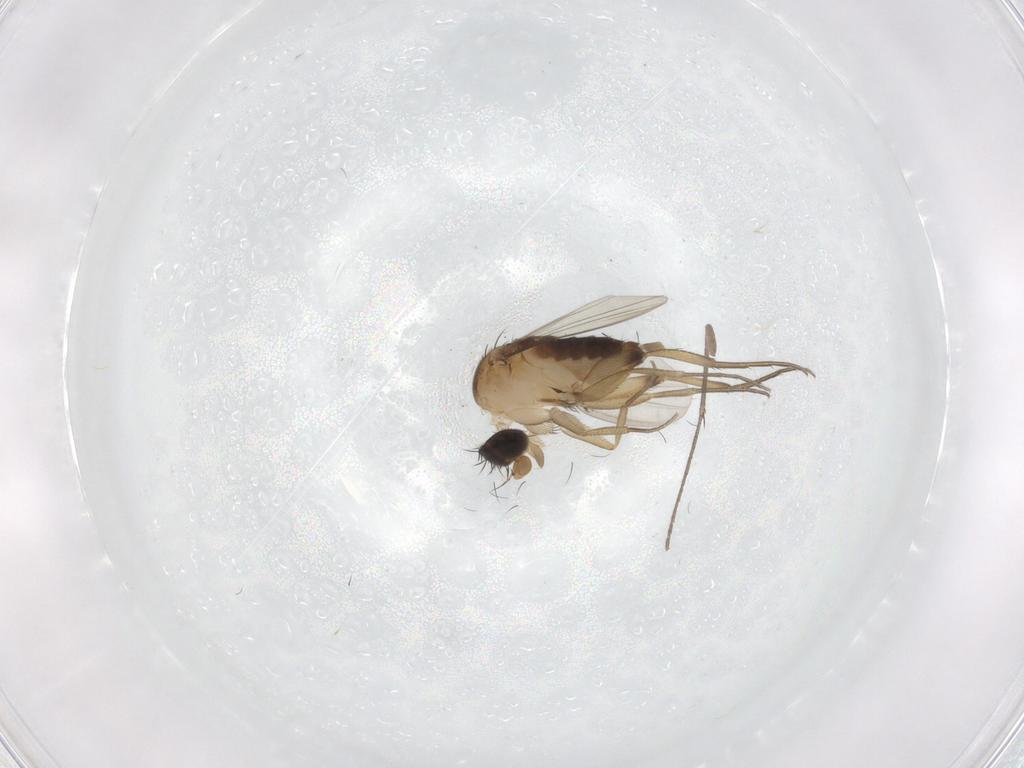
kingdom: Animalia
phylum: Arthropoda
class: Insecta
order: Diptera
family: Phoridae
